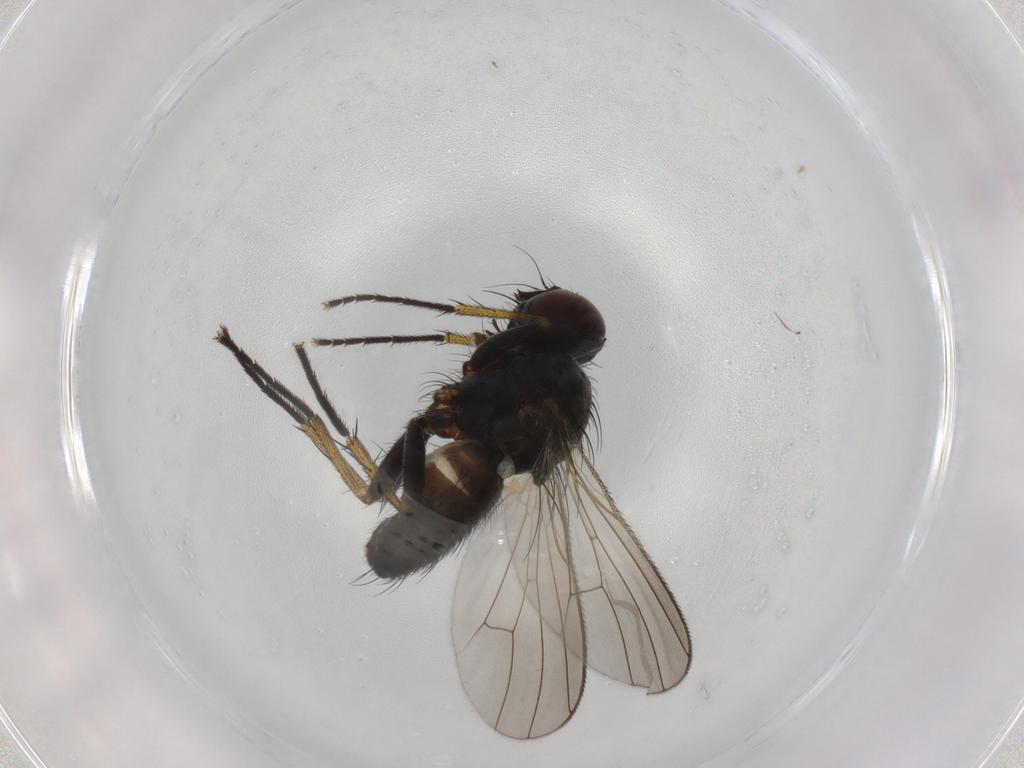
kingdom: Animalia
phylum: Arthropoda
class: Insecta
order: Diptera
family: Muscidae
